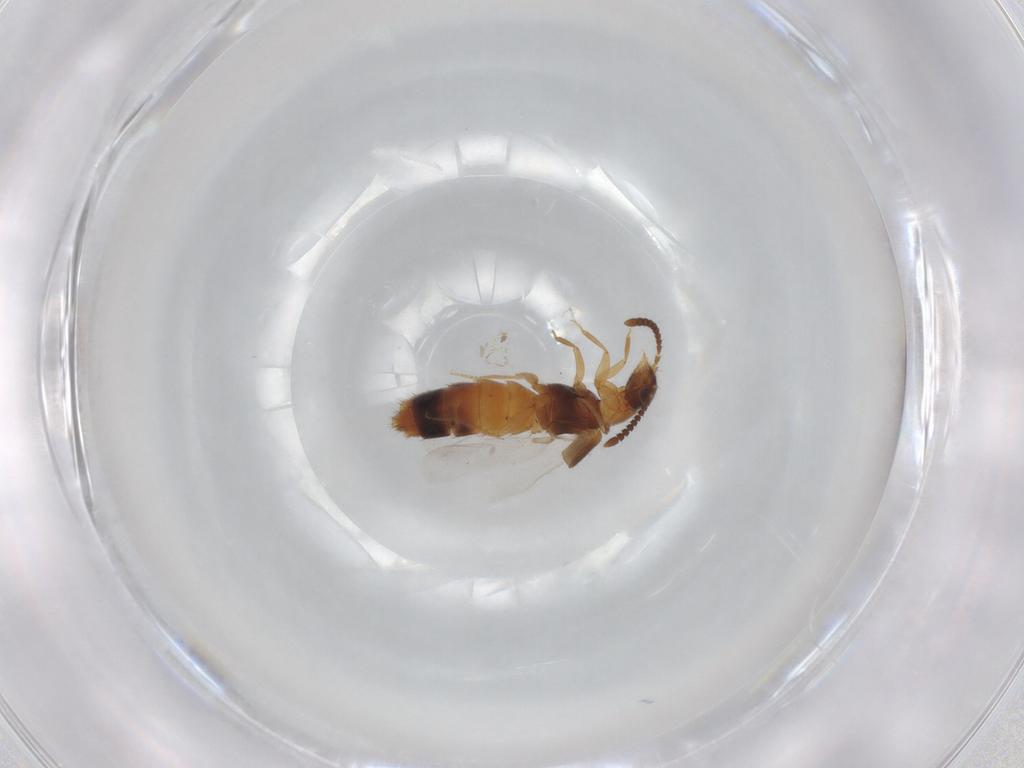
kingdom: Animalia
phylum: Arthropoda
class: Insecta
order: Coleoptera
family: Staphylinidae
